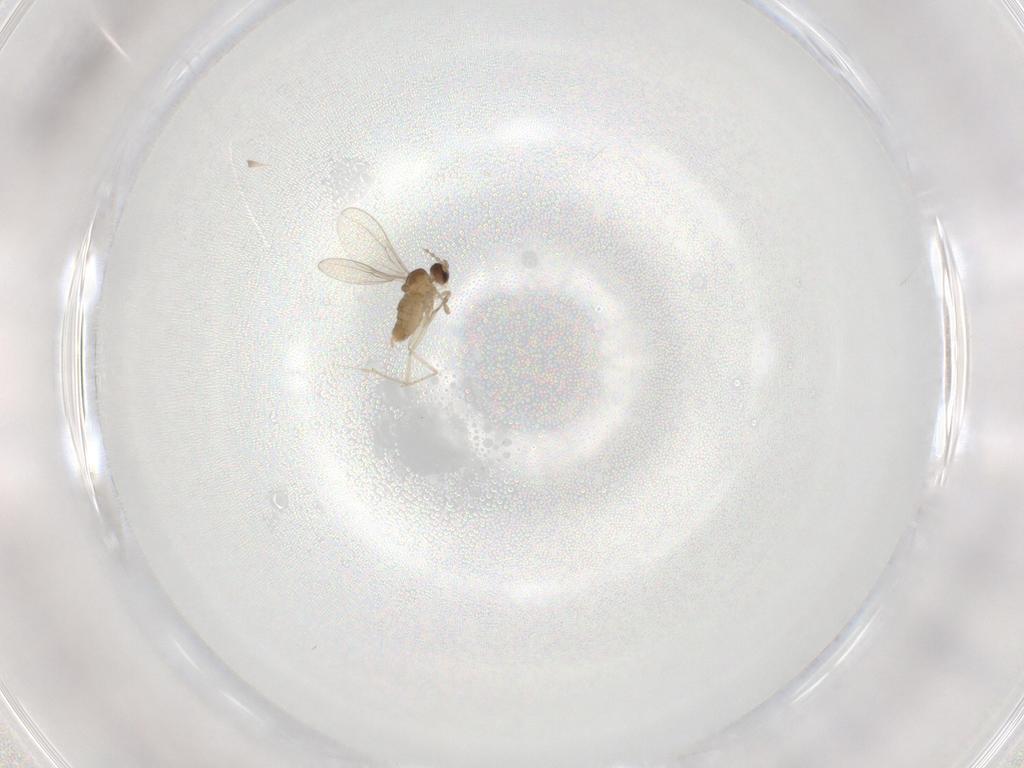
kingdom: Animalia
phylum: Arthropoda
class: Insecta
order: Diptera
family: Cecidomyiidae
